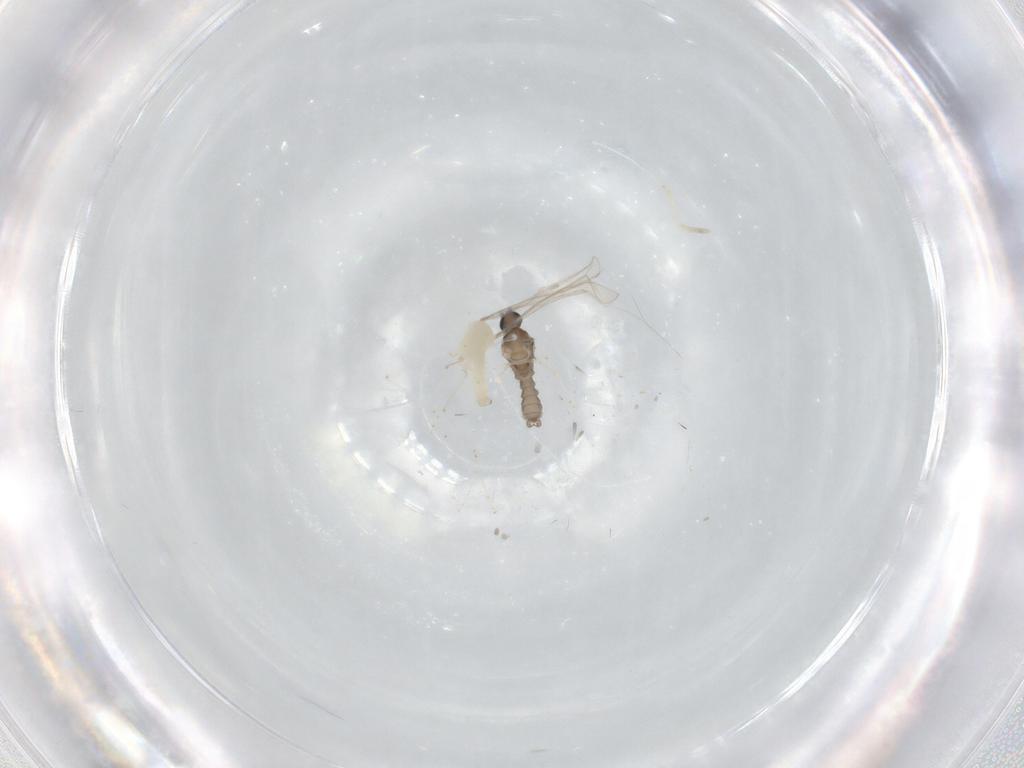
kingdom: Animalia
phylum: Arthropoda
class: Insecta
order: Diptera
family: Cecidomyiidae
